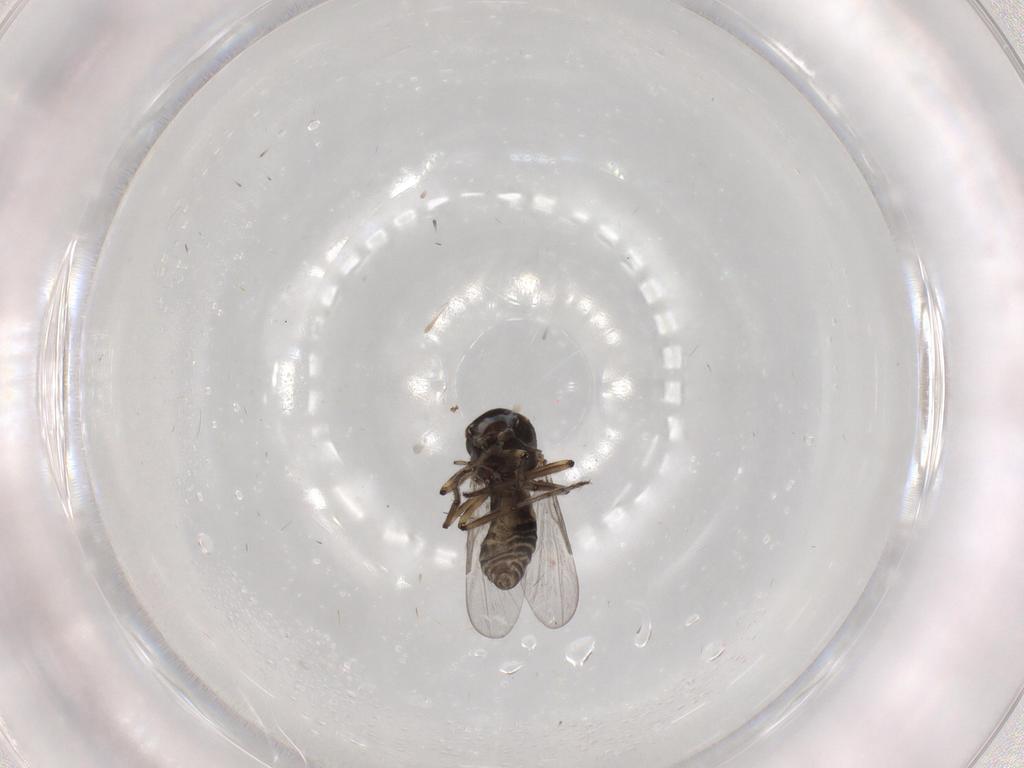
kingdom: Animalia
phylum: Arthropoda
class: Insecta
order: Diptera
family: Syrphidae
